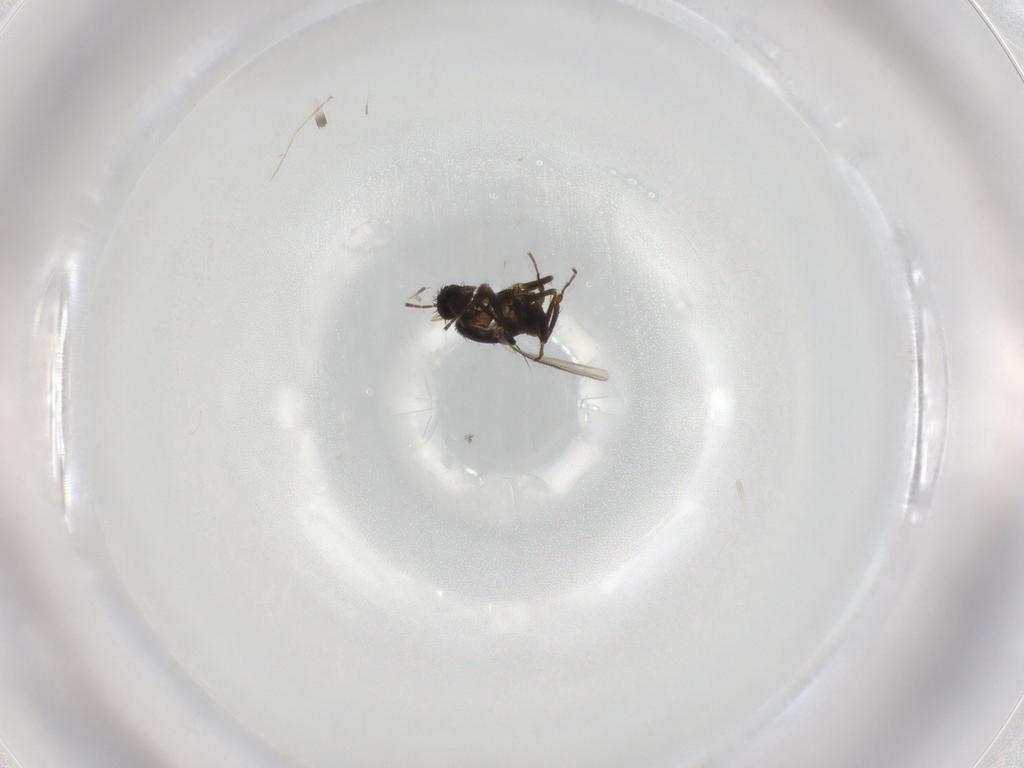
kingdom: Animalia
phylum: Arthropoda
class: Insecta
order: Diptera
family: Sphaeroceridae
